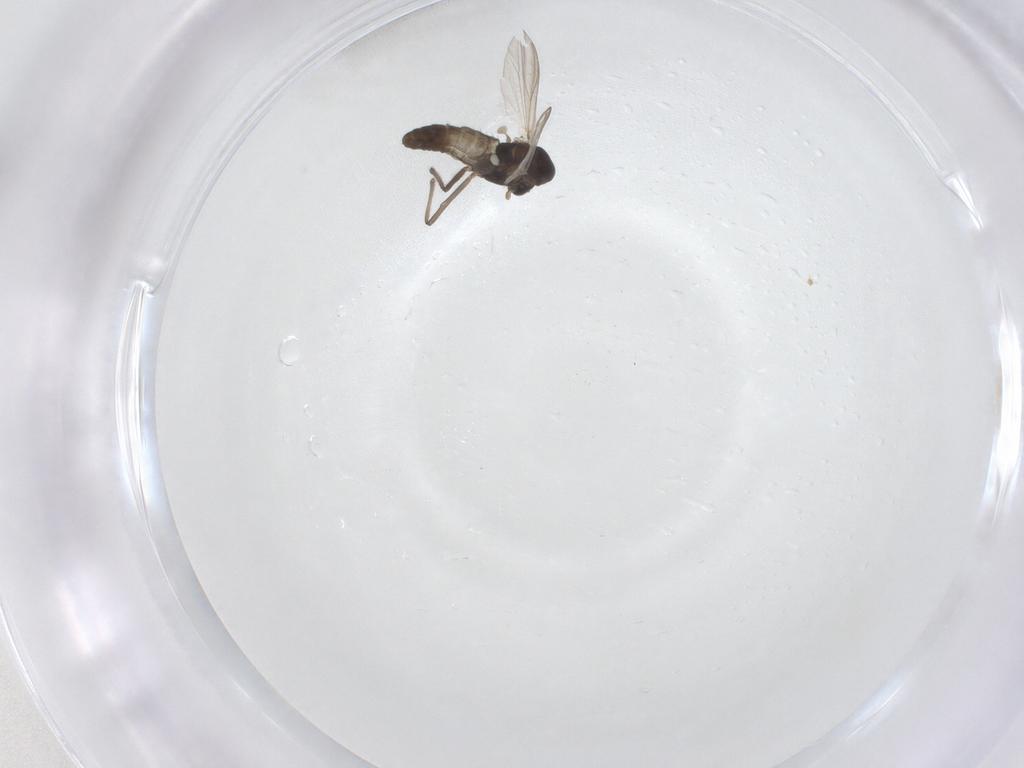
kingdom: Animalia
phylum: Arthropoda
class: Insecta
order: Diptera
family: Chironomidae
